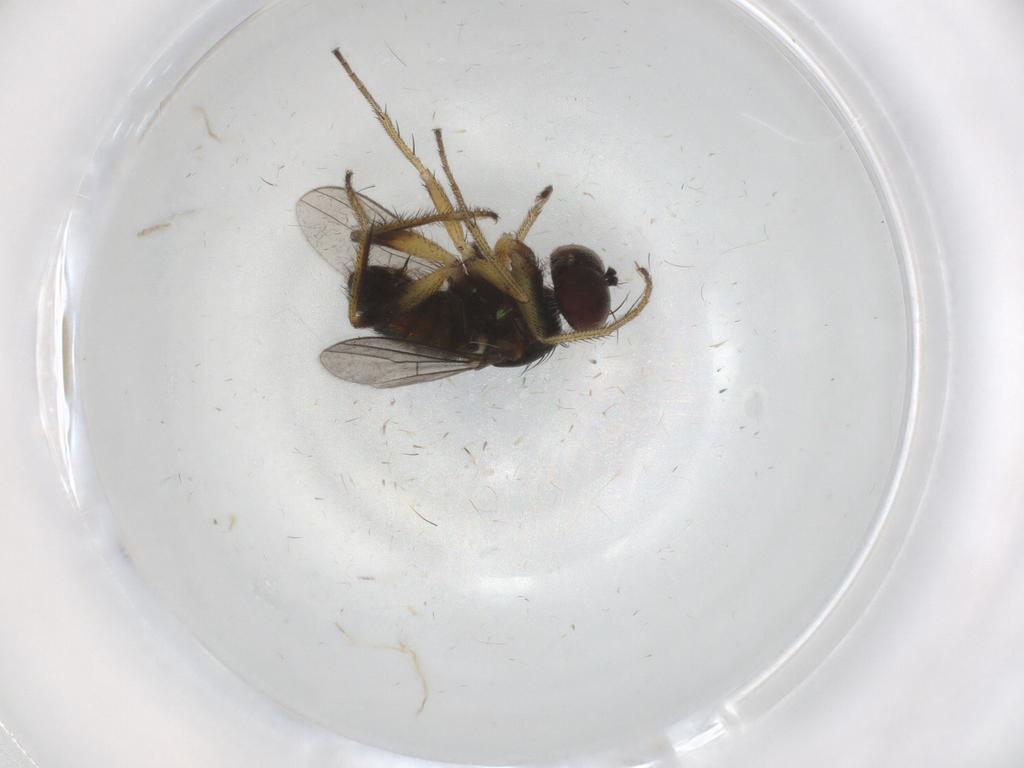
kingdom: Animalia
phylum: Arthropoda
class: Insecta
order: Diptera
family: Dolichopodidae
